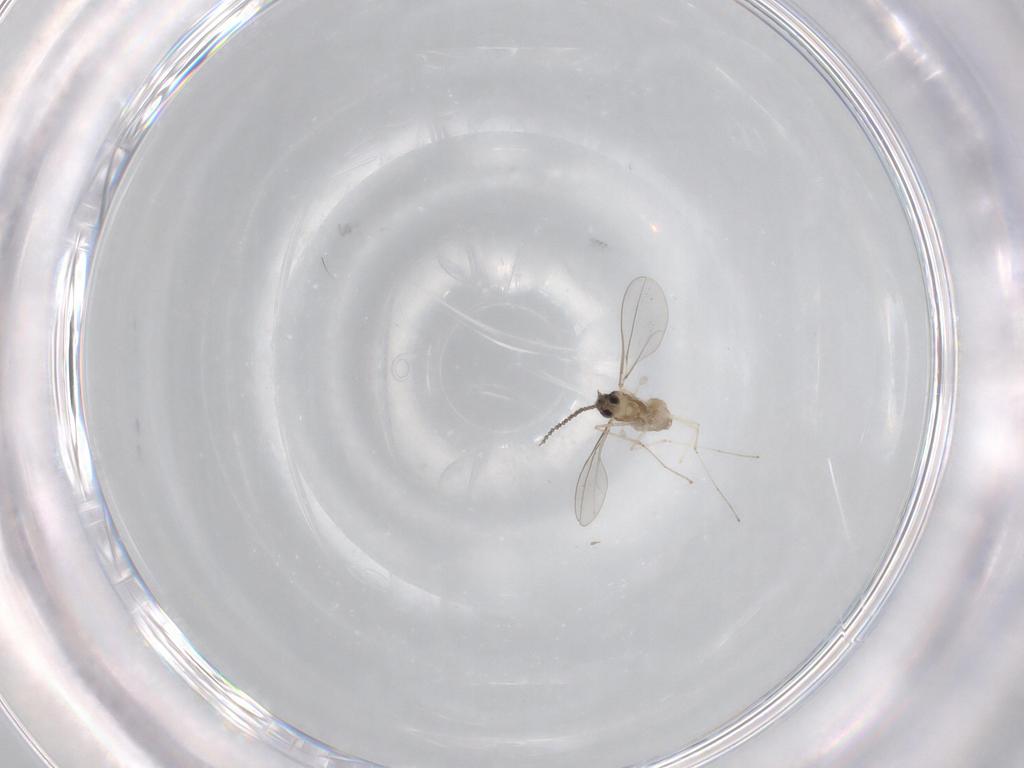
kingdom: Animalia
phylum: Arthropoda
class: Insecta
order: Diptera
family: Cecidomyiidae
